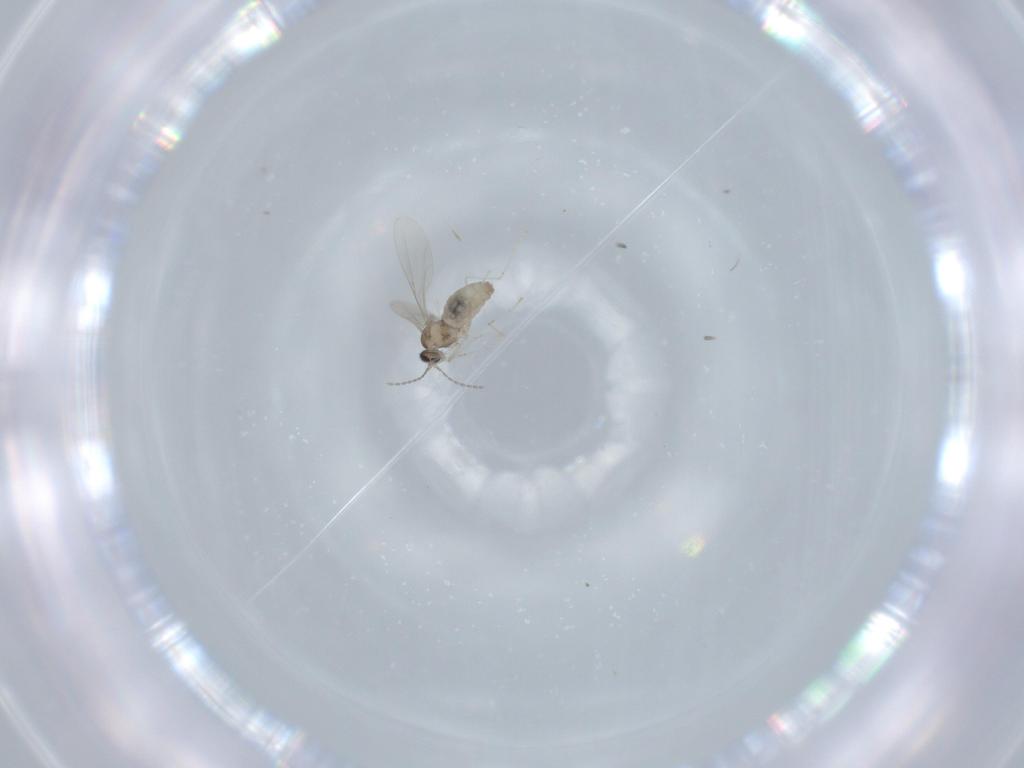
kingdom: Animalia
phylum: Arthropoda
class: Insecta
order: Diptera
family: Cecidomyiidae
